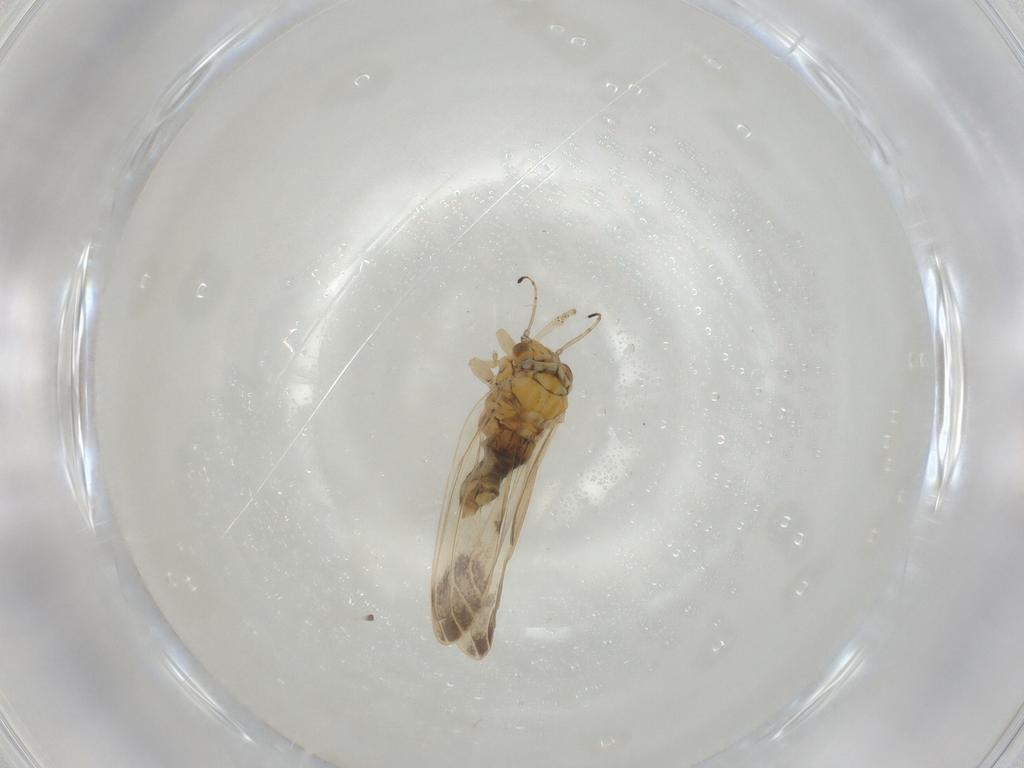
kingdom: Animalia
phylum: Arthropoda
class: Insecta
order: Hemiptera
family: Aphalaridae
